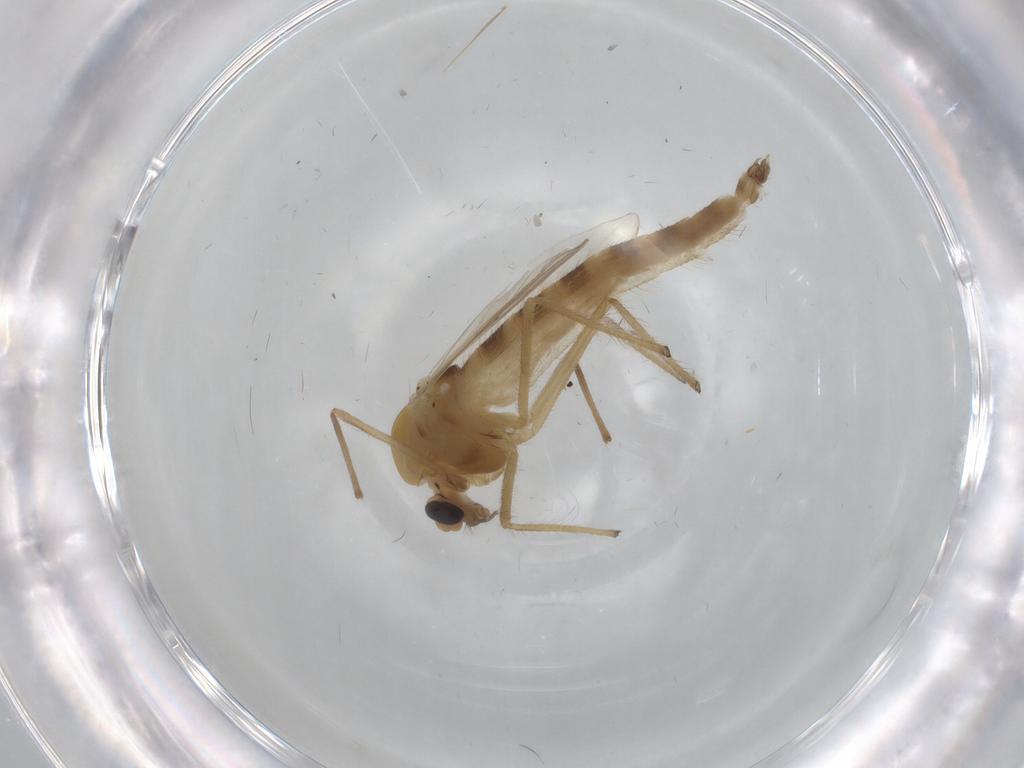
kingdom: Animalia
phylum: Arthropoda
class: Insecta
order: Diptera
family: Chironomidae
